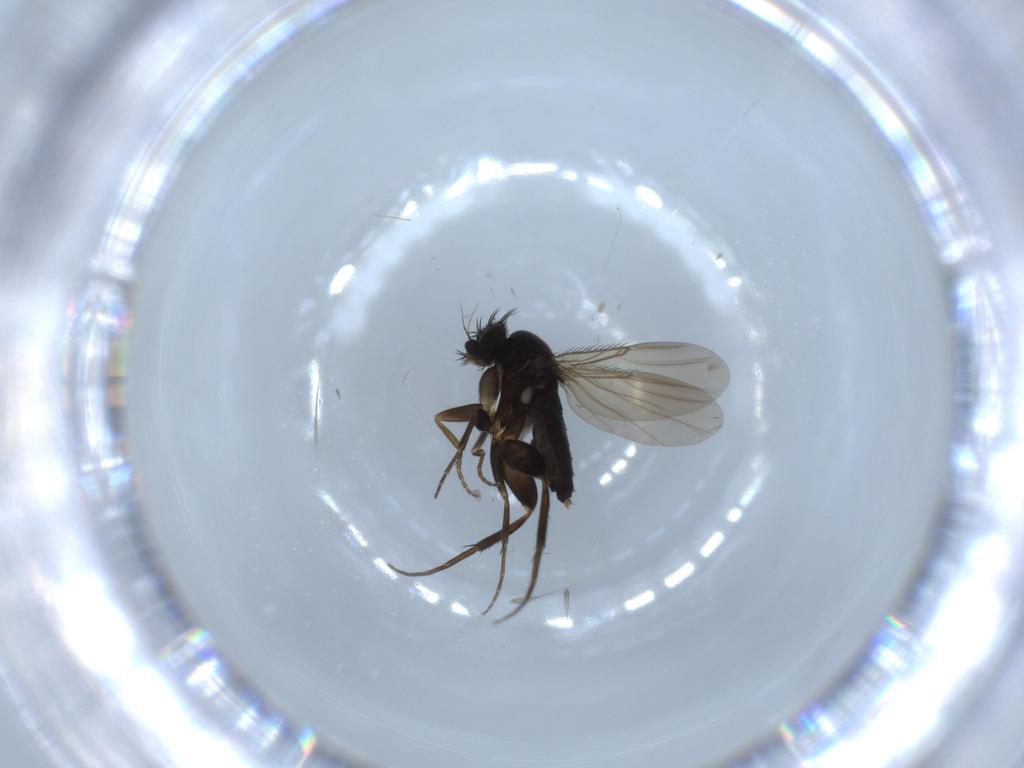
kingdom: Animalia
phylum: Arthropoda
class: Insecta
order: Diptera
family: Phoridae
